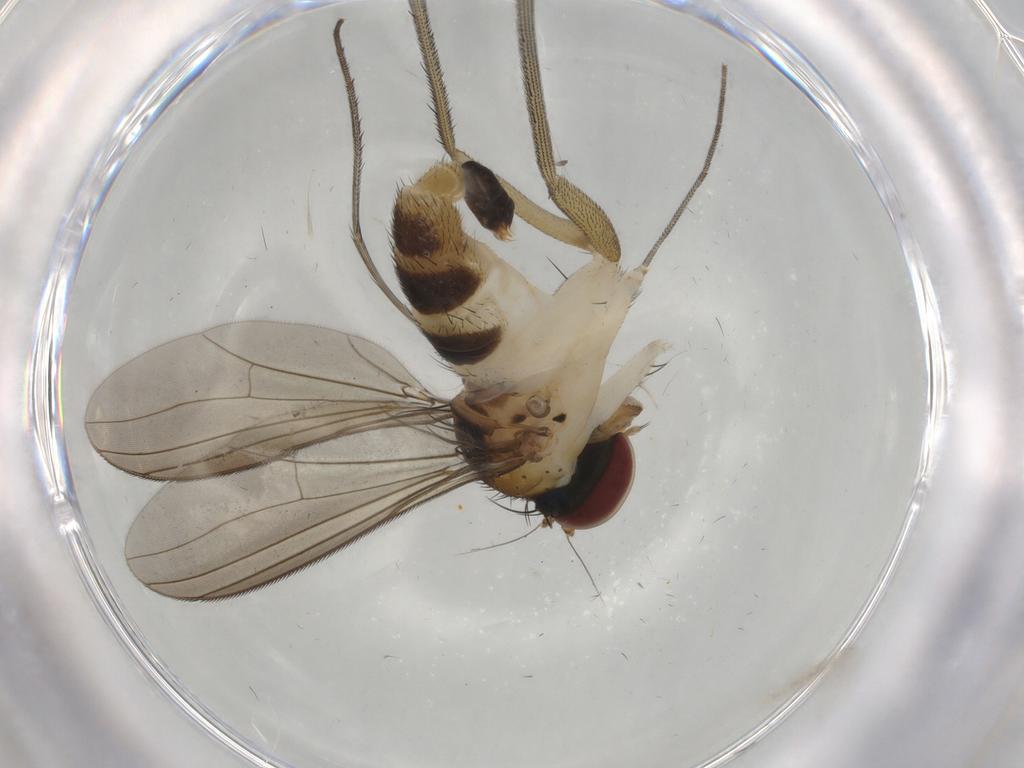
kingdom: Animalia
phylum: Arthropoda
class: Insecta
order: Diptera
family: Dolichopodidae
